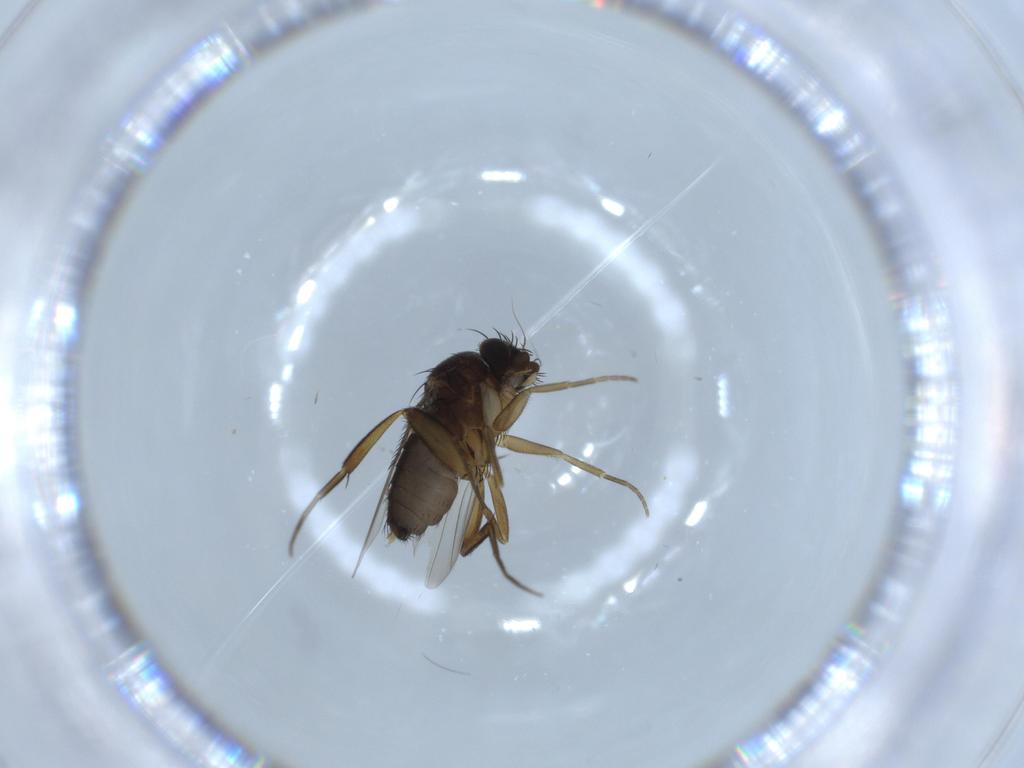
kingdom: Animalia
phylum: Arthropoda
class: Insecta
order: Diptera
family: Phoridae
